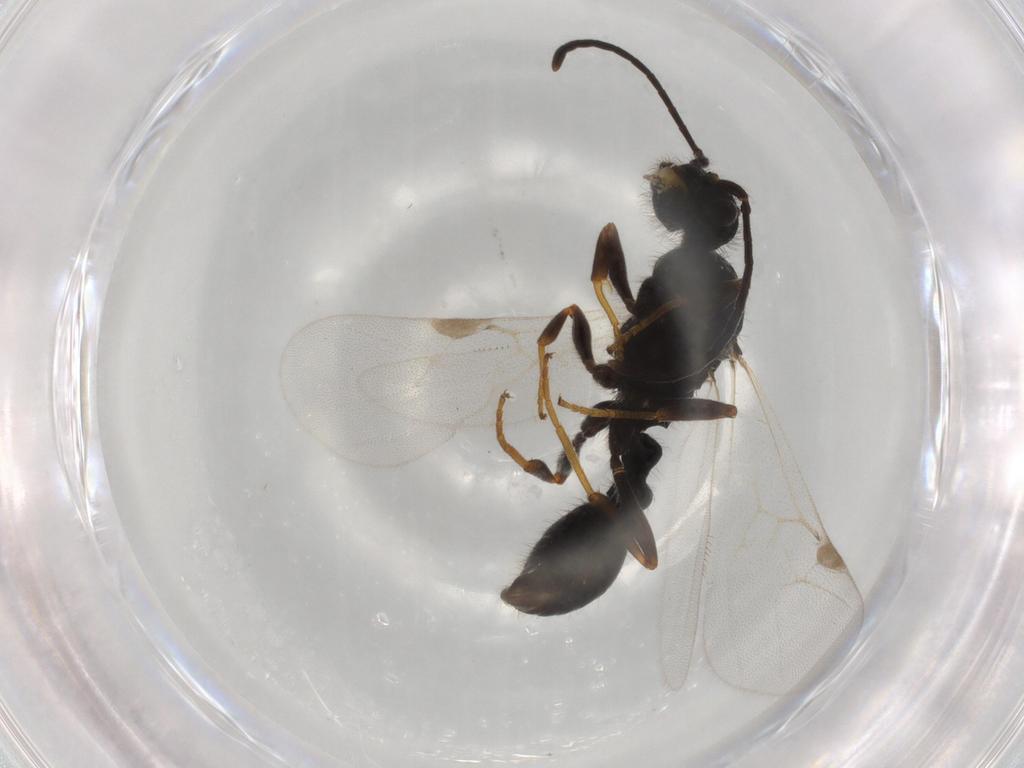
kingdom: Animalia
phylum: Arthropoda
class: Insecta
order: Hymenoptera
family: Formicidae
